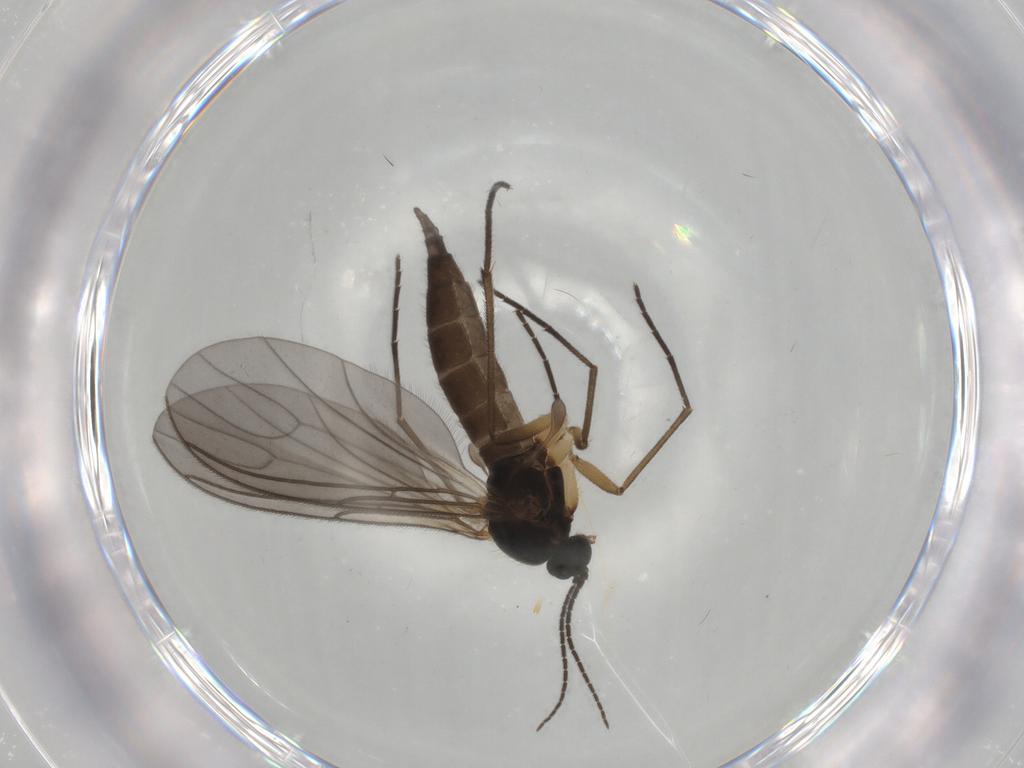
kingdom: Animalia
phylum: Arthropoda
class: Insecta
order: Diptera
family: Sciaridae
